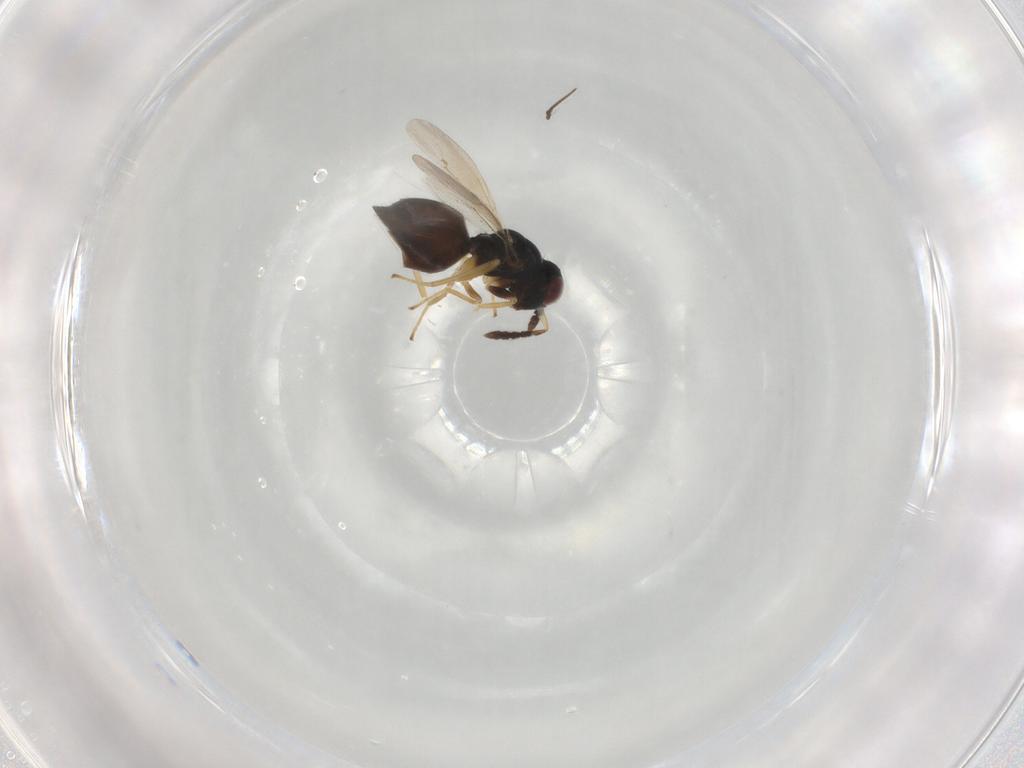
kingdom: Animalia
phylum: Arthropoda
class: Insecta
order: Hymenoptera
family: Eulophidae
